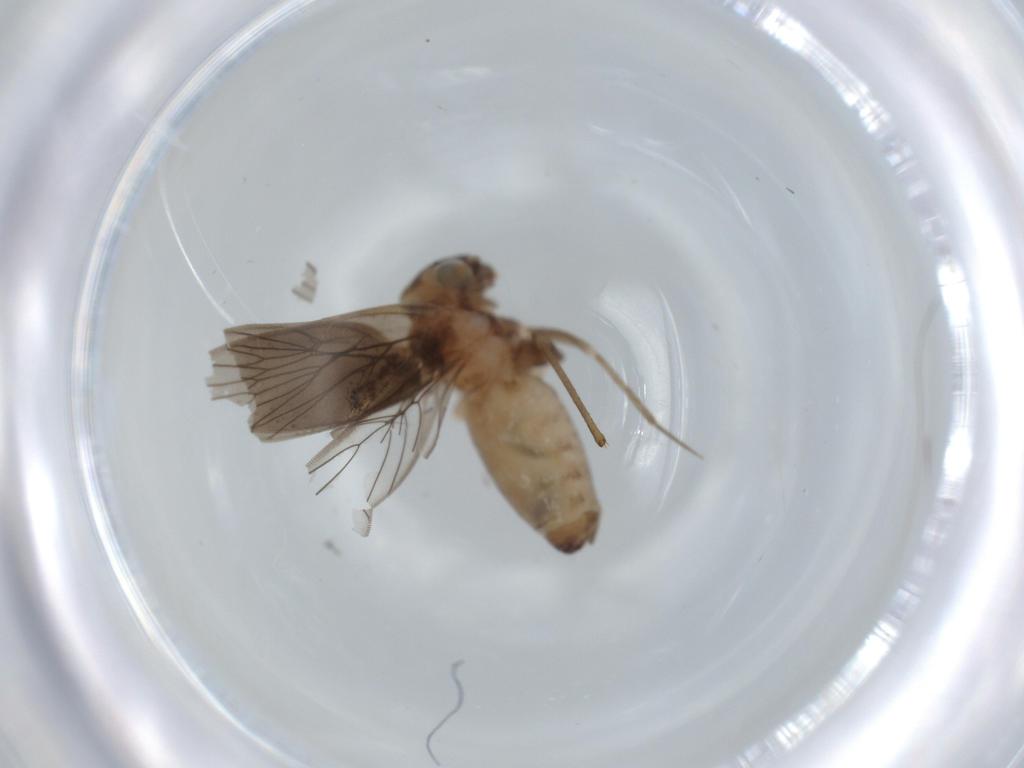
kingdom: Animalia
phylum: Arthropoda
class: Insecta
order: Psocodea
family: Lepidopsocidae
